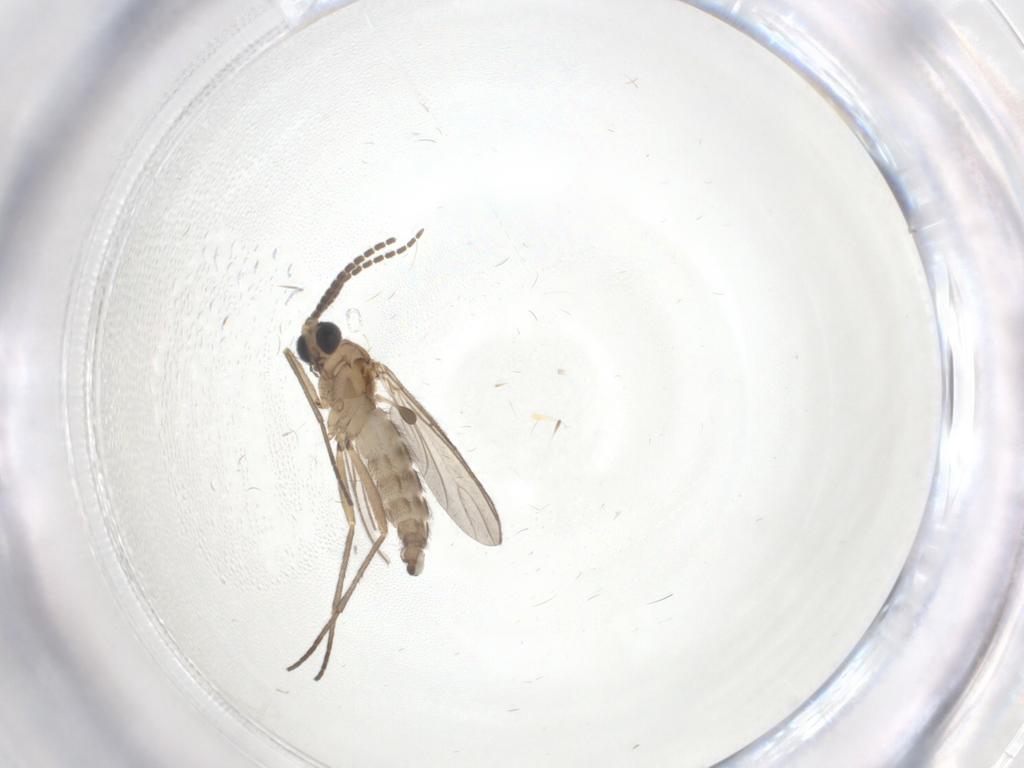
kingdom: Animalia
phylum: Arthropoda
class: Insecta
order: Diptera
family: Sciaridae
